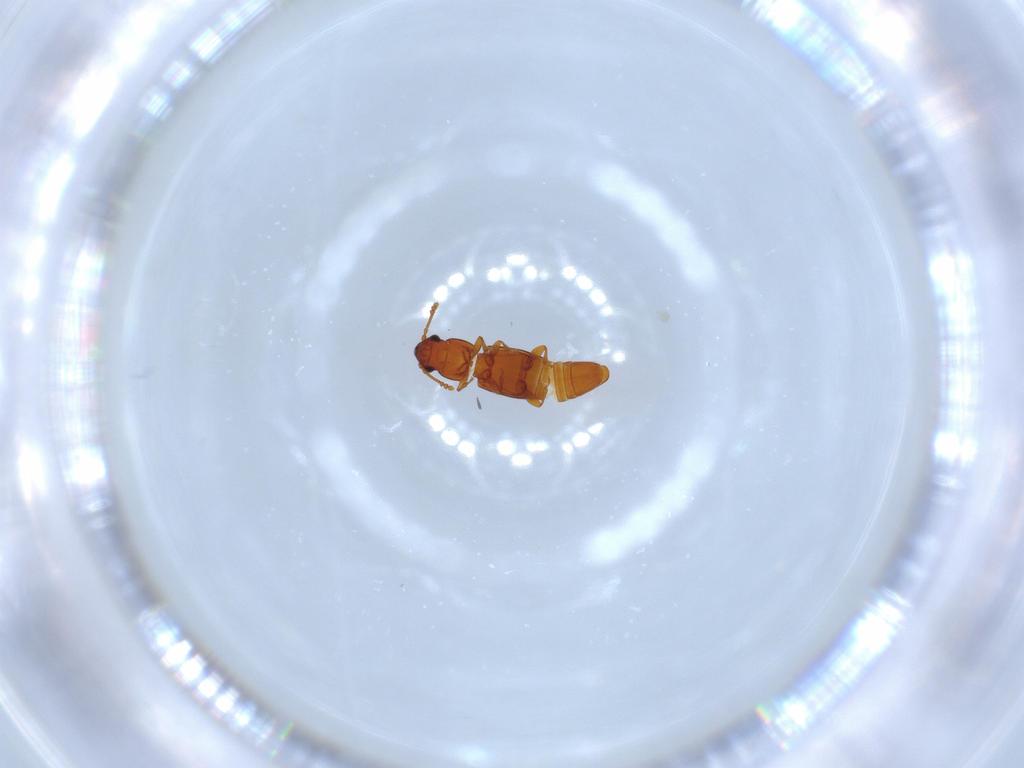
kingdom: Animalia
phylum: Arthropoda
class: Insecta
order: Coleoptera
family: Smicripidae
